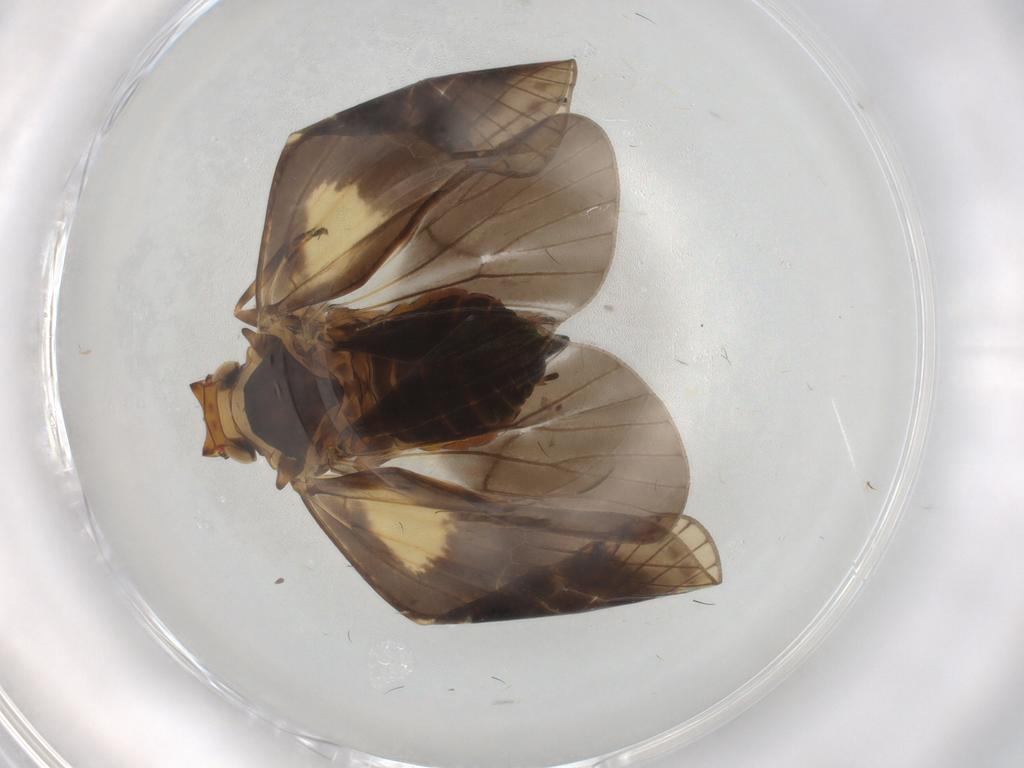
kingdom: Animalia
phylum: Arthropoda
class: Insecta
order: Hemiptera
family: Cixiidae
